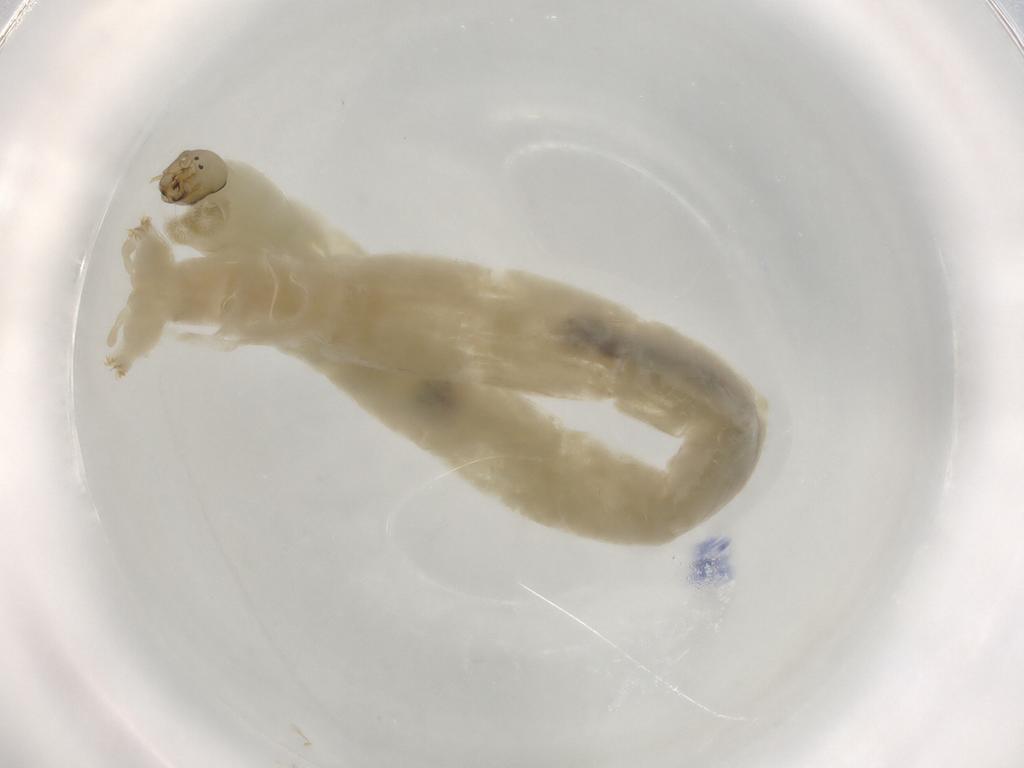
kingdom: Animalia
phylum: Arthropoda
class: Insecta
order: Diptera
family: Chironomidae
